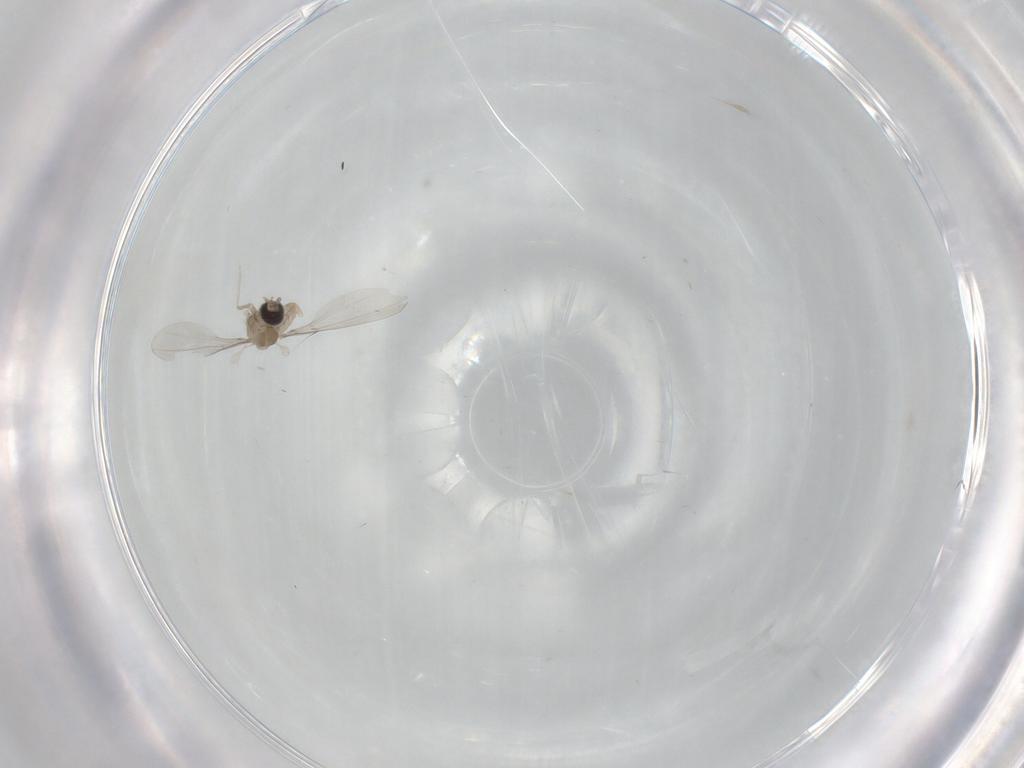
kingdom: Animalia
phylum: Arthropoda
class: Insecta
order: Diptera
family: Cecidomyiidae
